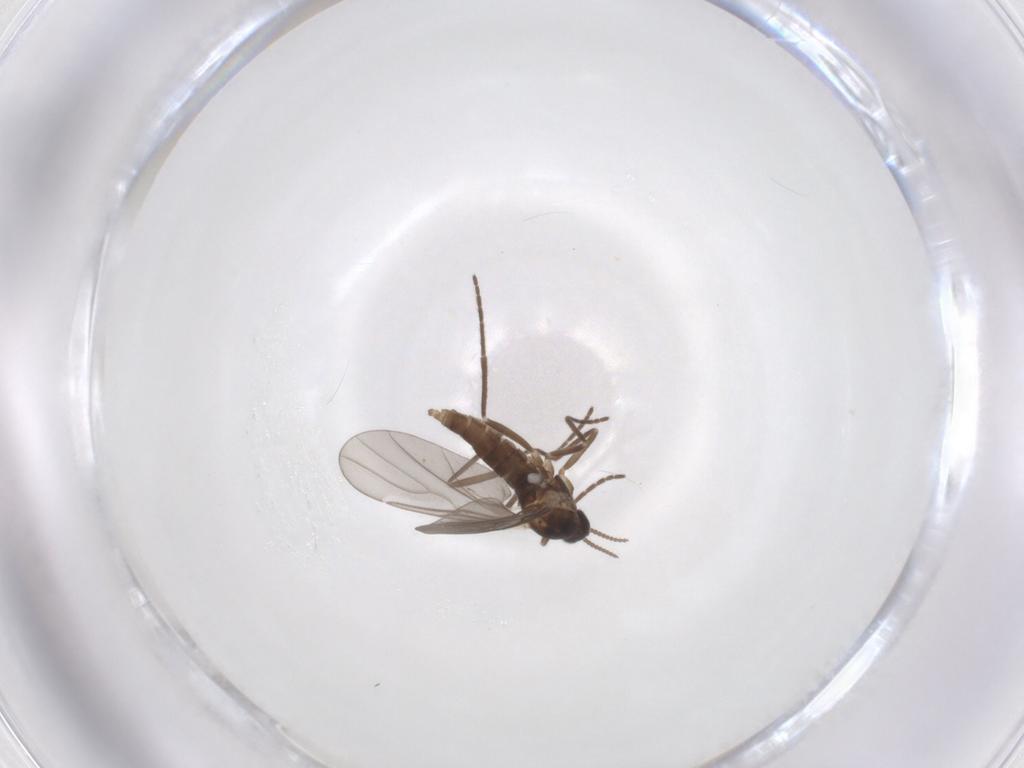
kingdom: Animalia
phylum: Arthropoda
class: Insecta
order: Diptera
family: Cecidomyiidae
